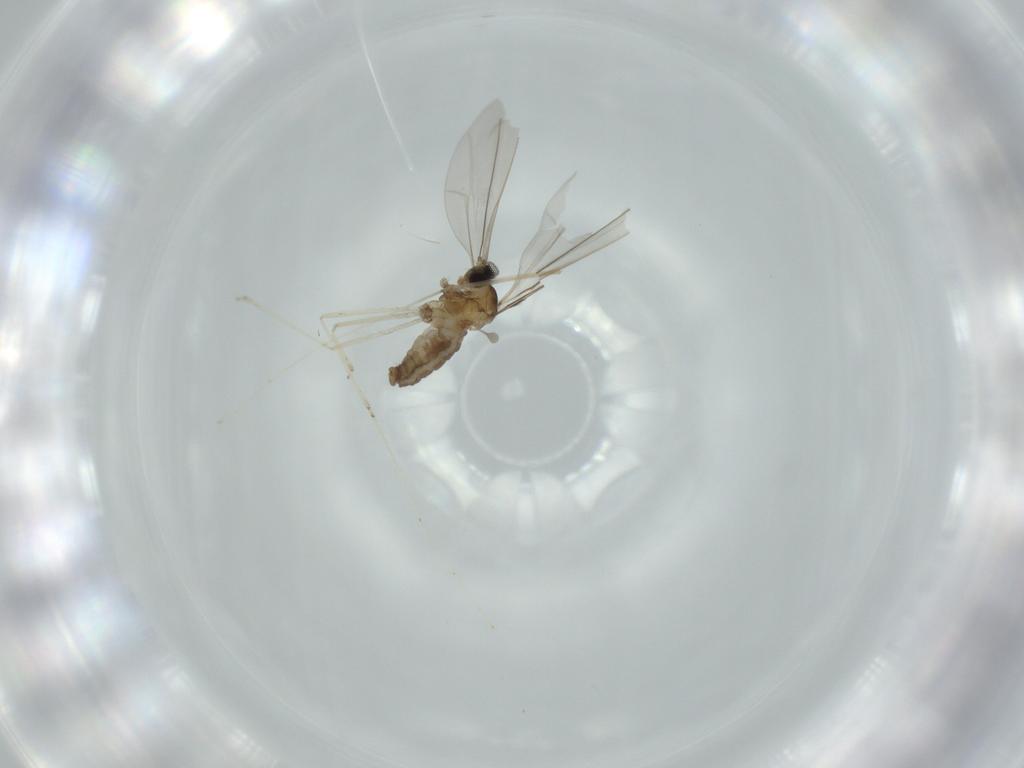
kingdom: Animalia
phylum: Arthropoda
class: Insecta
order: Diptera
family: Cecidomyiidae
